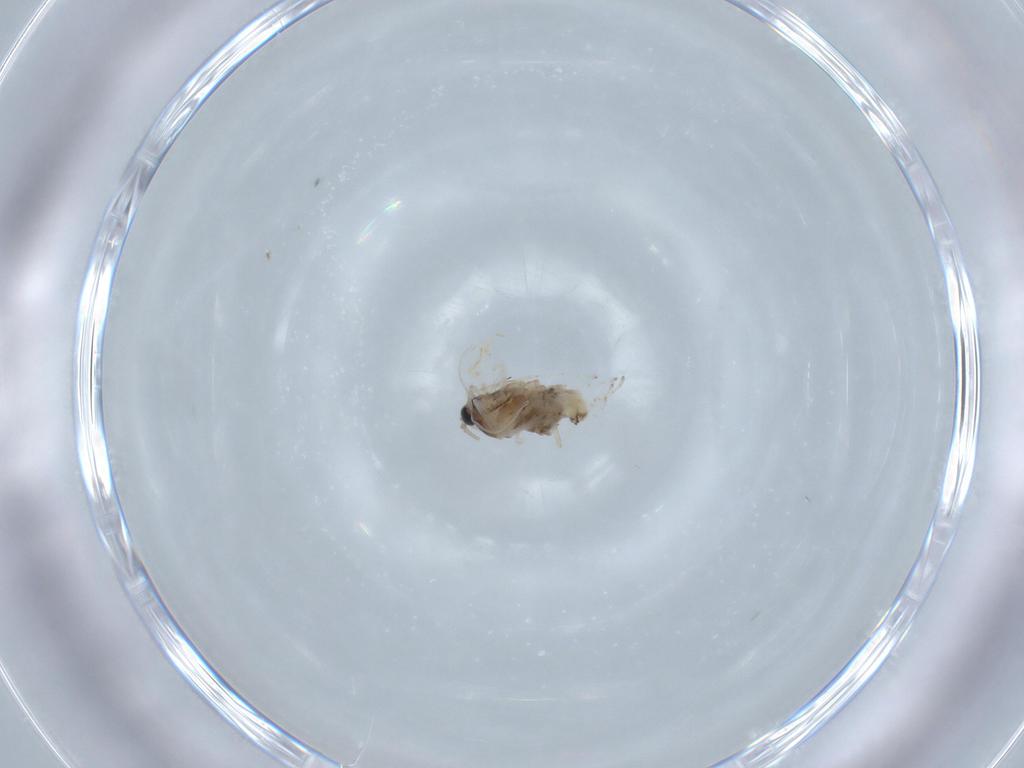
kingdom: Animalia
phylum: Arthropoda
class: Insecta
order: Diptera
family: Cecidomyiidae
